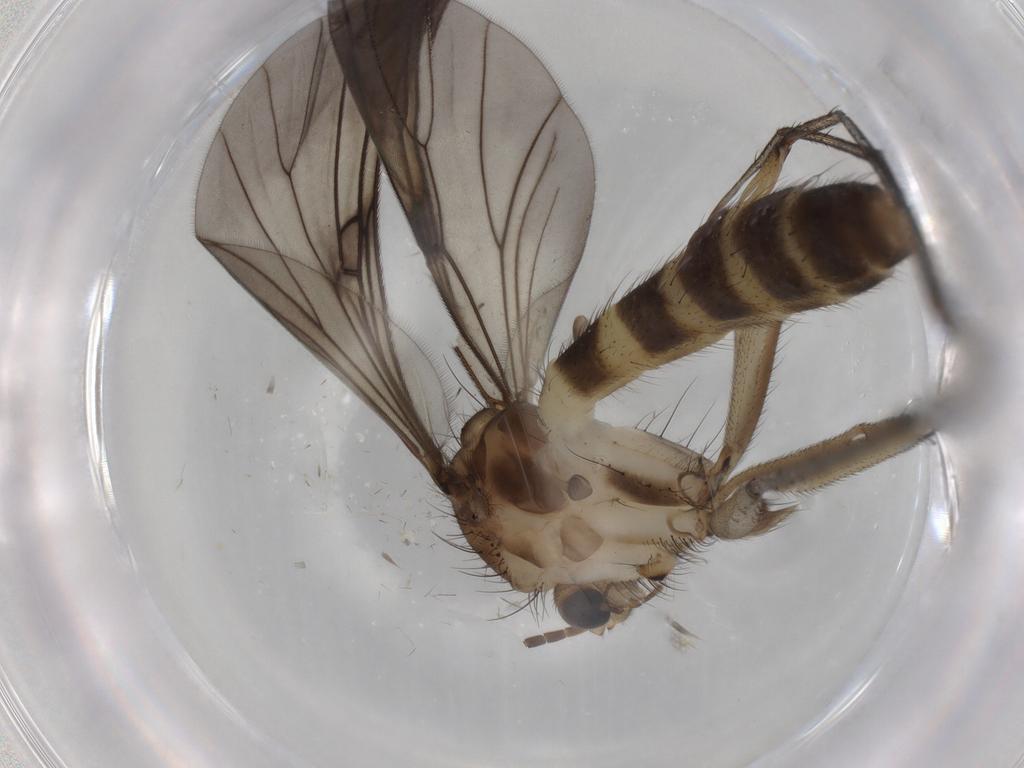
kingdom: Animalia
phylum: Arthropoda
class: Insecta
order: Diptera
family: Mycetophilidae
